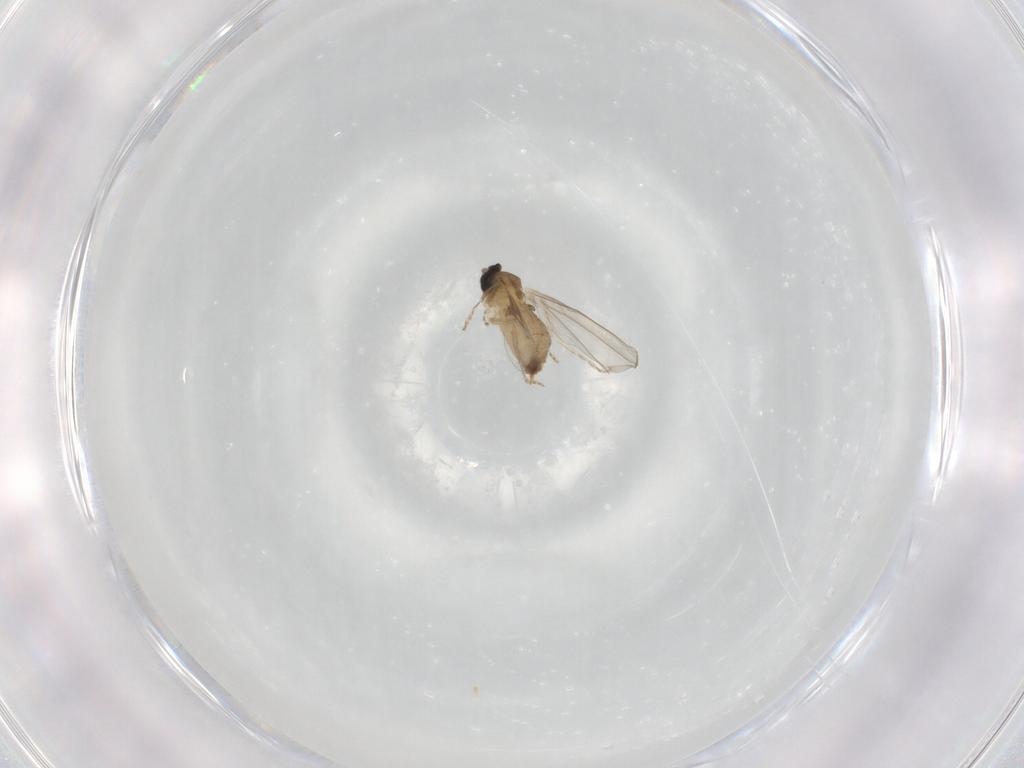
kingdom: Animalia
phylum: Arthropoda
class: Insecta
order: Diptera
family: Cecidomyiidae
